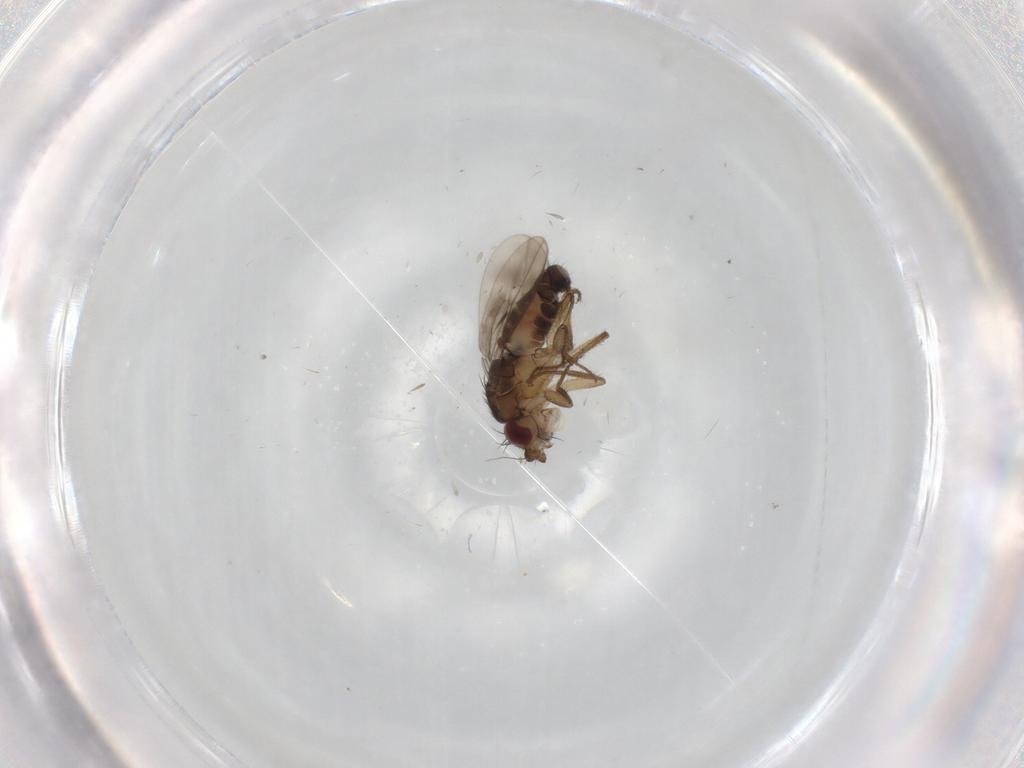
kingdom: Animalia
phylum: Arthropoda
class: Insecta
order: Diptera
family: Sphaeroceridae
